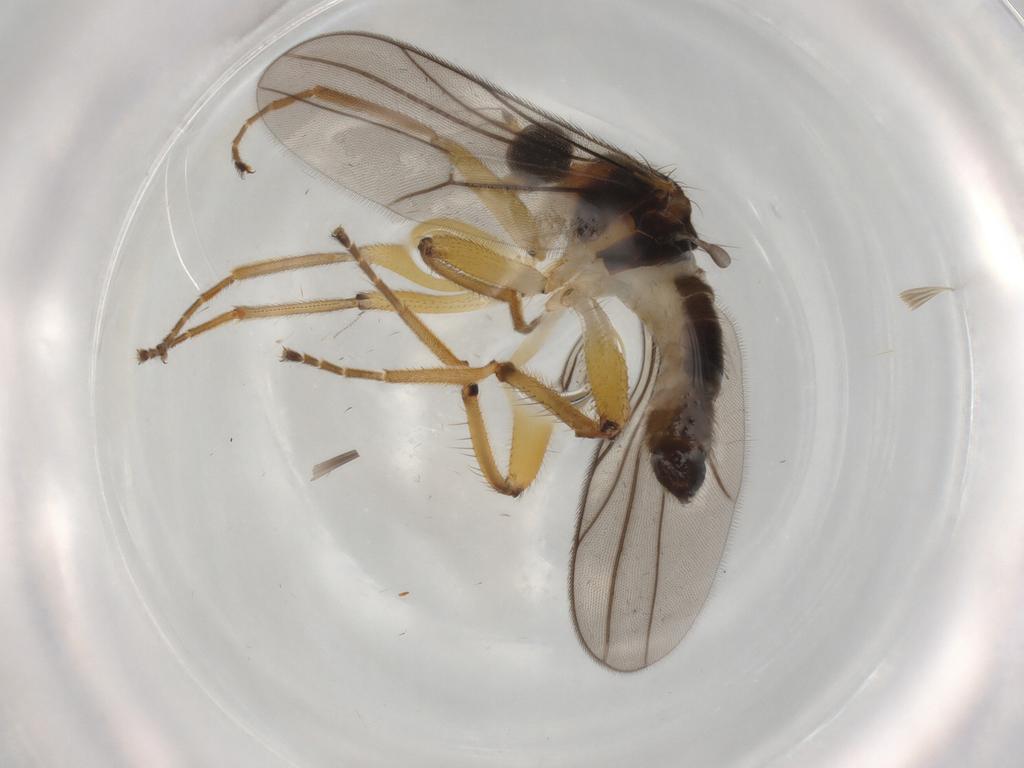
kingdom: Animalia
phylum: Arthropoda
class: Insecta
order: Diptera
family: Hybotidae
